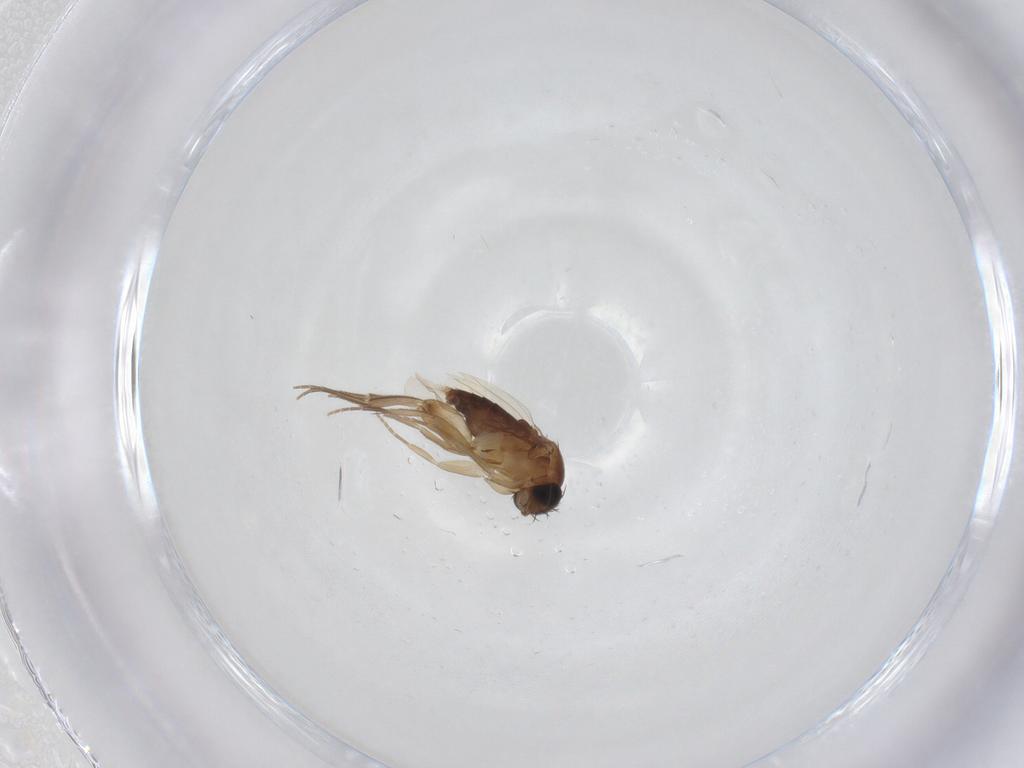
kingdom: Animalia
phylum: Arthropoda
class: Insecta
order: Diptera
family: Phoridae
